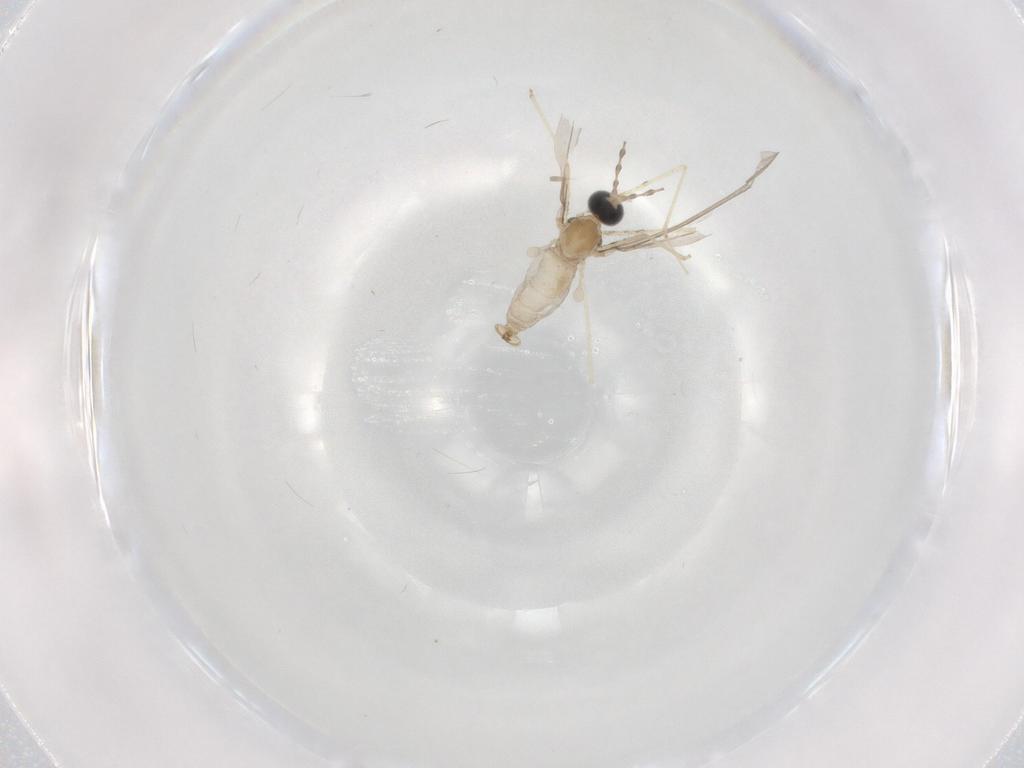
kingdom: Animalia
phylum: Arthropoda
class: Insecta
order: Diptera
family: Cecidomyiidae
